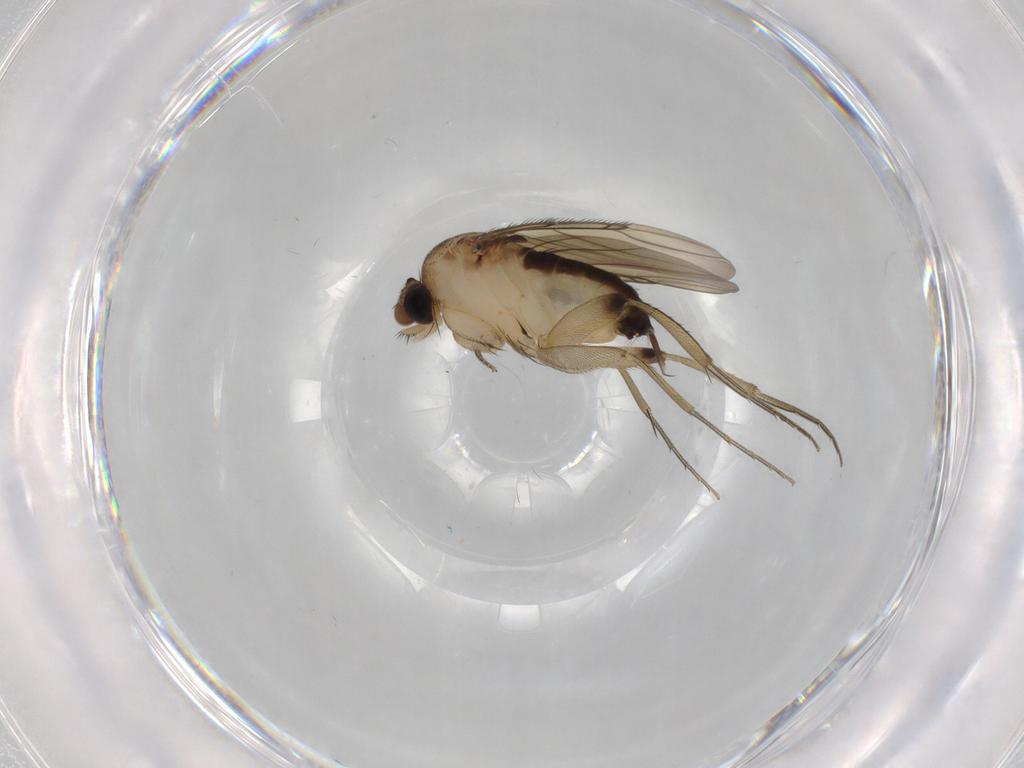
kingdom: Animalia
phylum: Arthropoda
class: Insecta
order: Diptera
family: Phoridae
